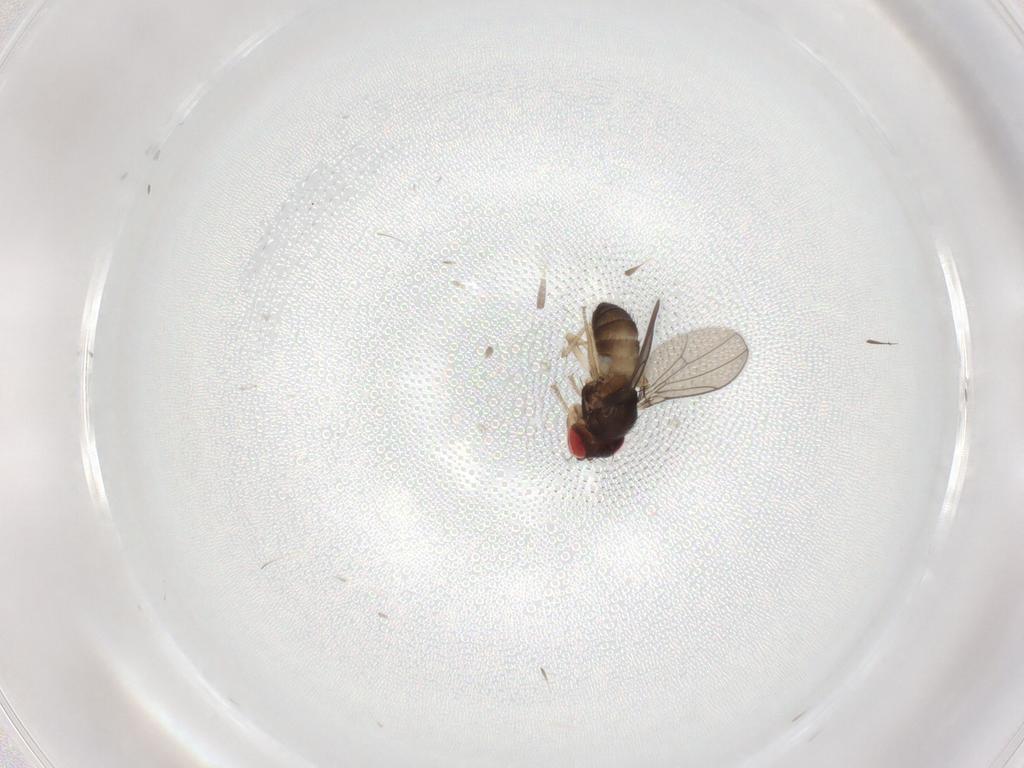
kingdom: Animalia
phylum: Arthropoda
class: Insecta
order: Diptera
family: Drosophilidae
